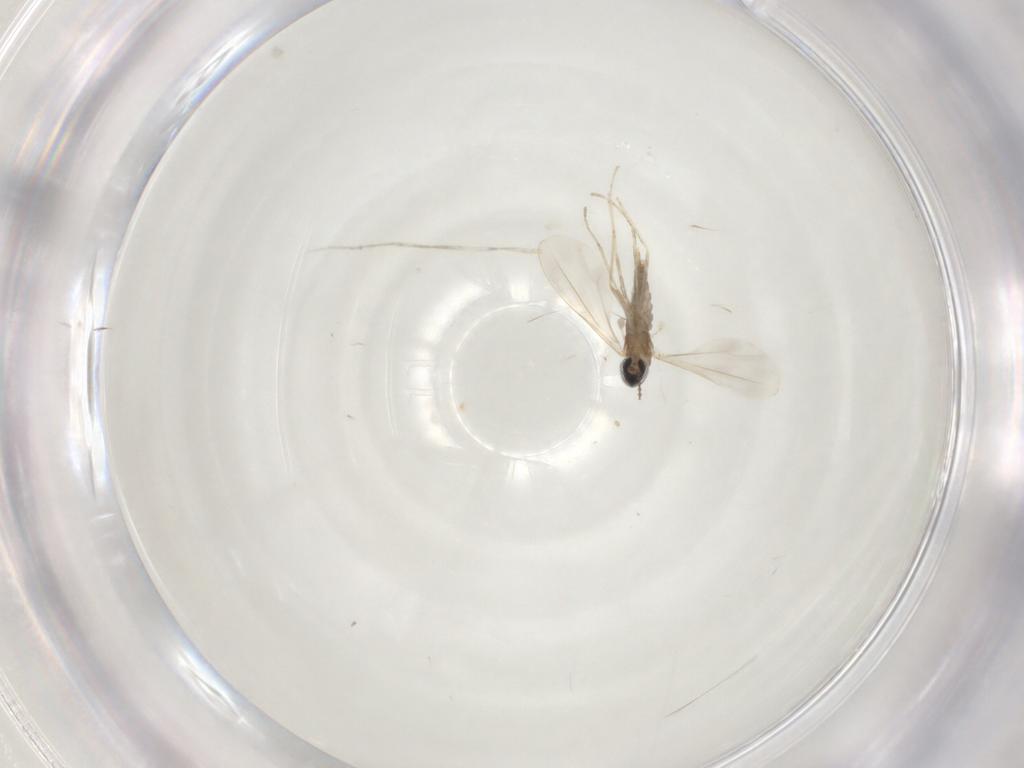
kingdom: Animalia
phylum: Arthropoda
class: Insecta
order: Diptera
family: Cecidomyiidae
